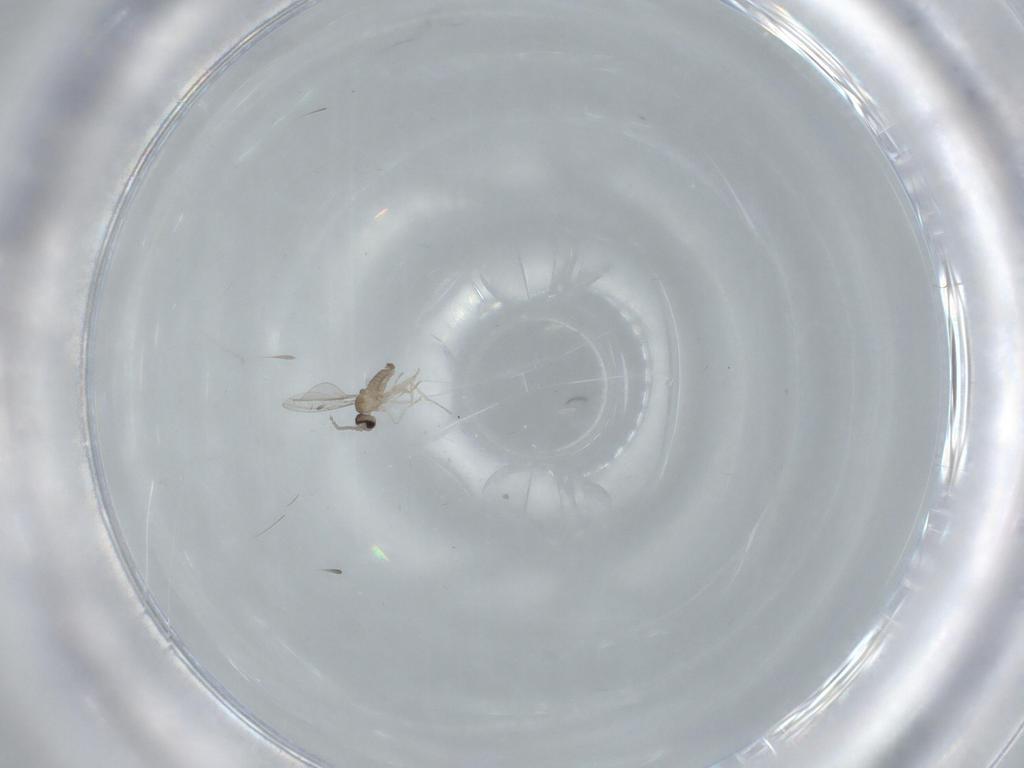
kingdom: Animalia
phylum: Arthropoda
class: Insecta
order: Diptera
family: Cecidomyiidae
